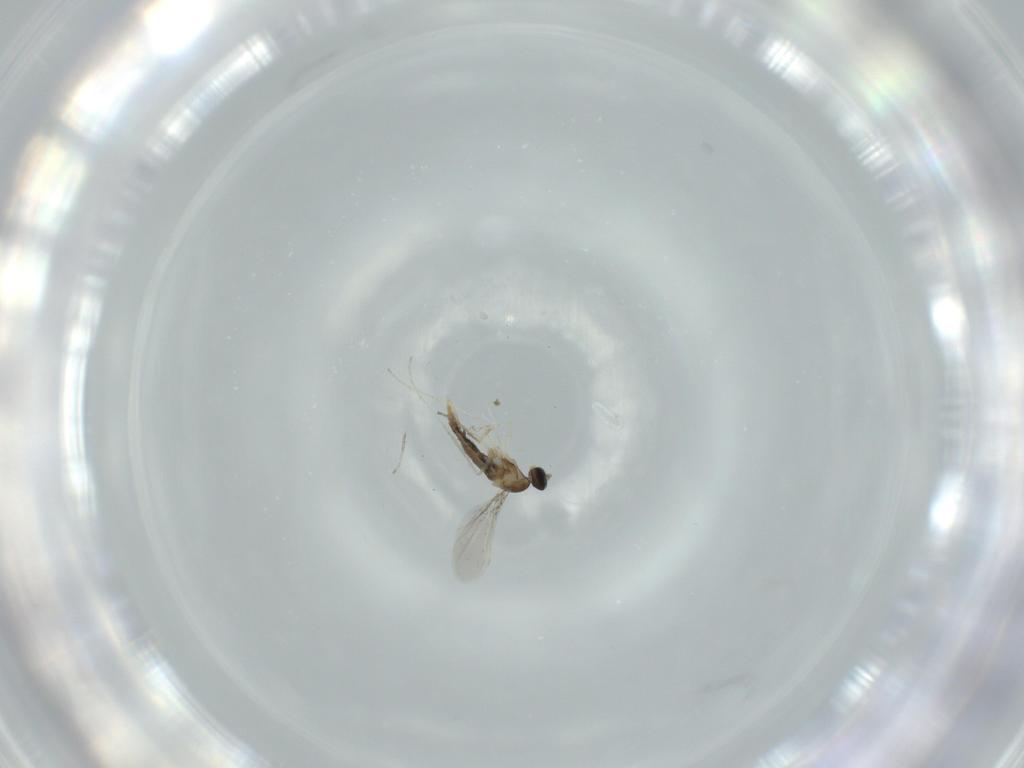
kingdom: Animalia
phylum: Arthropoda
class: Insecta
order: Diptera
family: Cecidomyiidae
